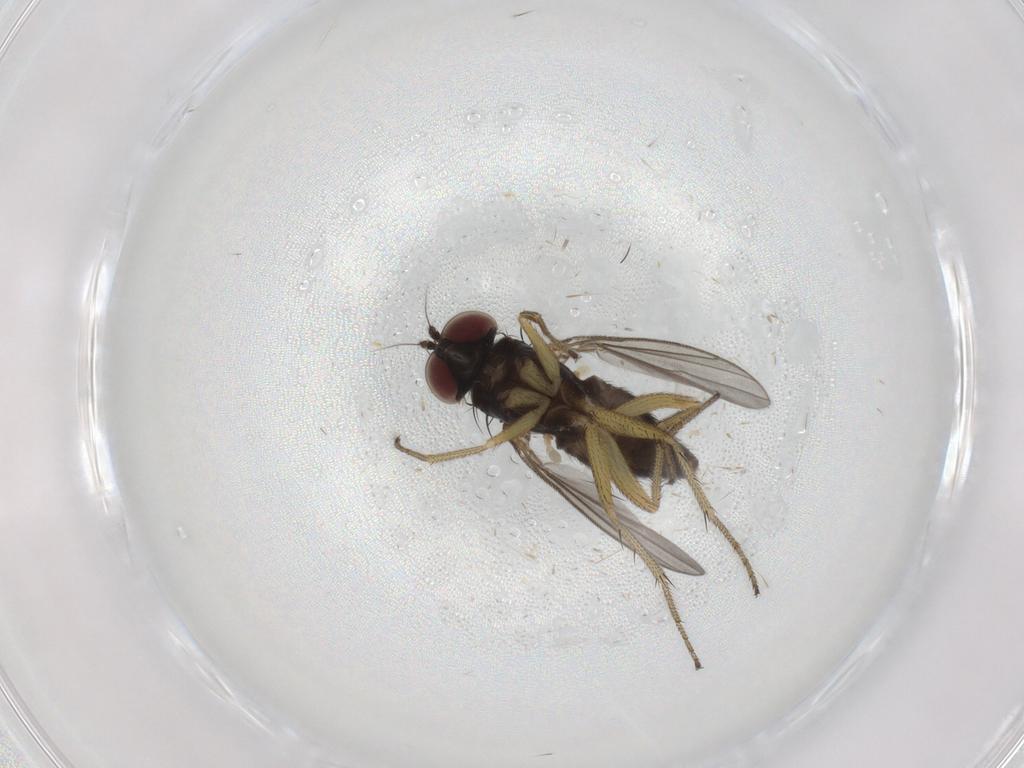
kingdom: Animalia
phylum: Arthropoda
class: Insecta
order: Diptera
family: Dolichopodidae
